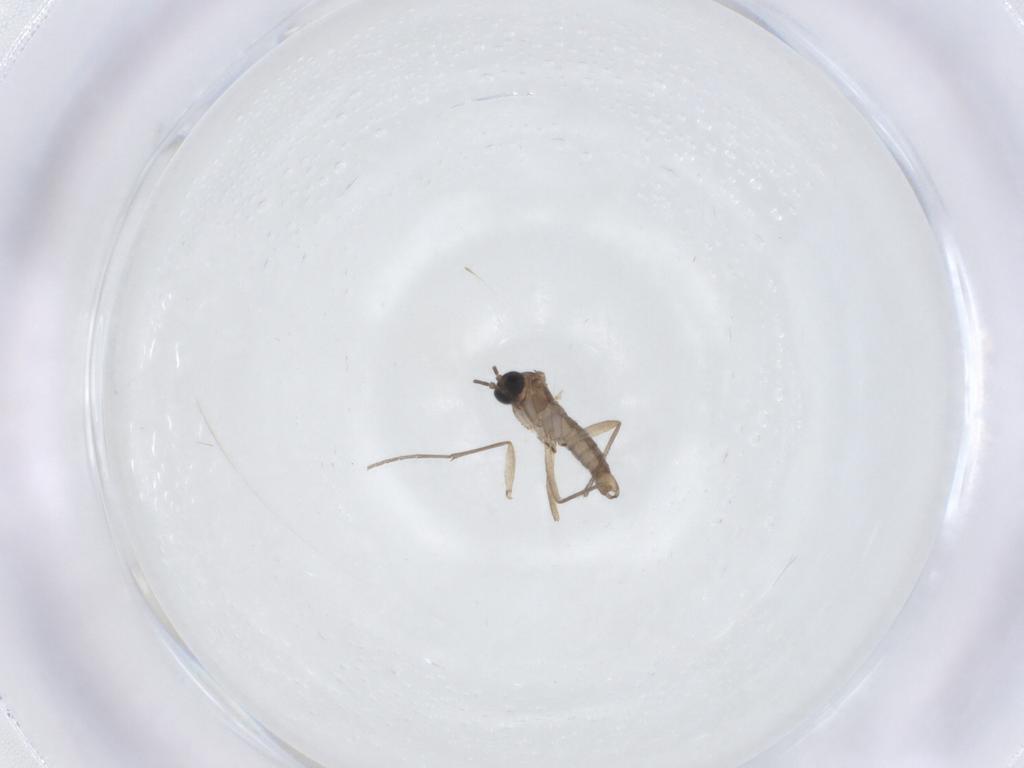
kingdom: Animalia
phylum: Arthropoda
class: Insecta
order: Diptera
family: Sciaridae
